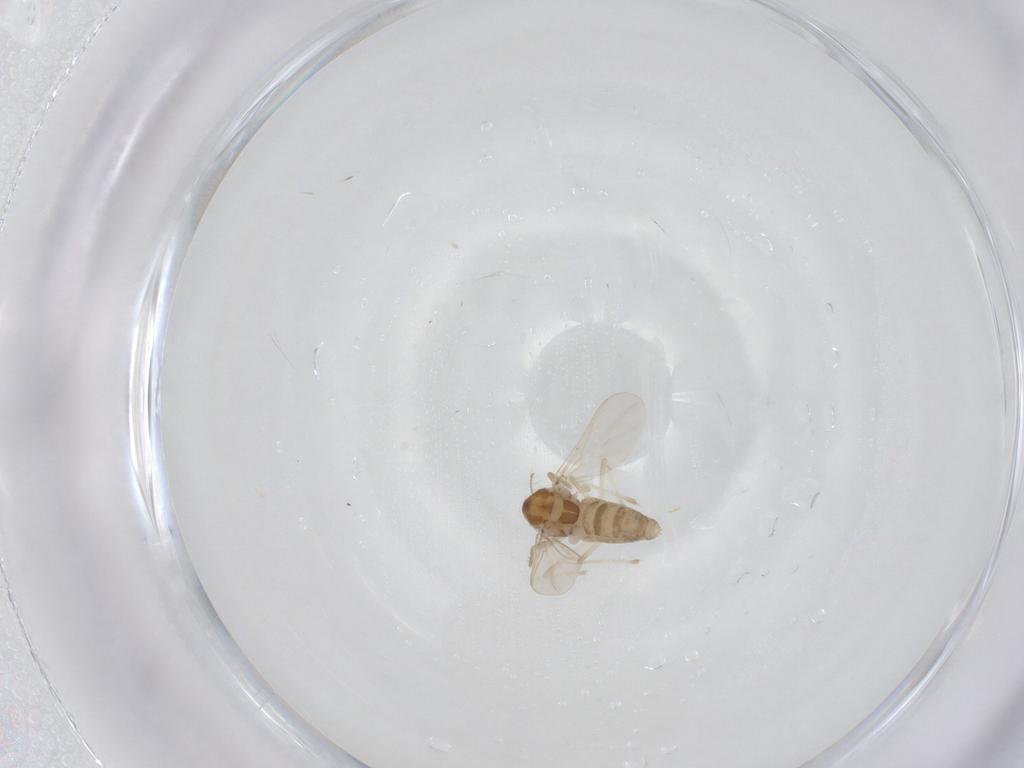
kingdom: Animalia
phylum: Arthropoda
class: Insecta
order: Diptera
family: Chironomidae
